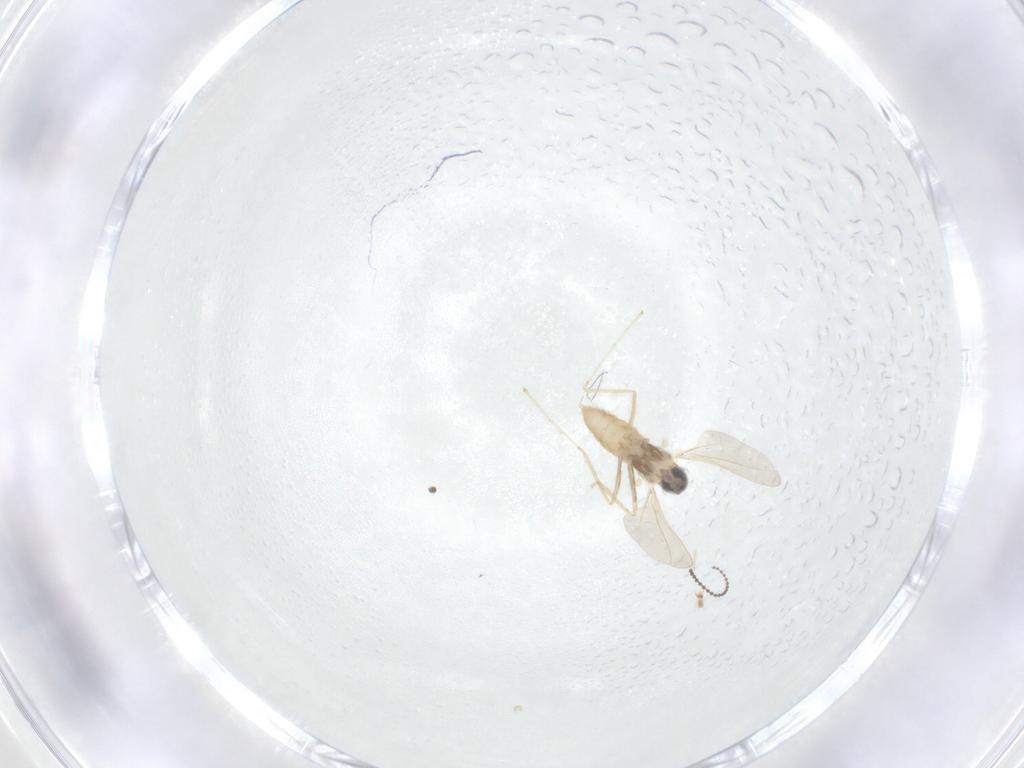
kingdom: Animalia
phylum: Arthropoda
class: Insecta
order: Diptera
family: Cecidomyiidae
